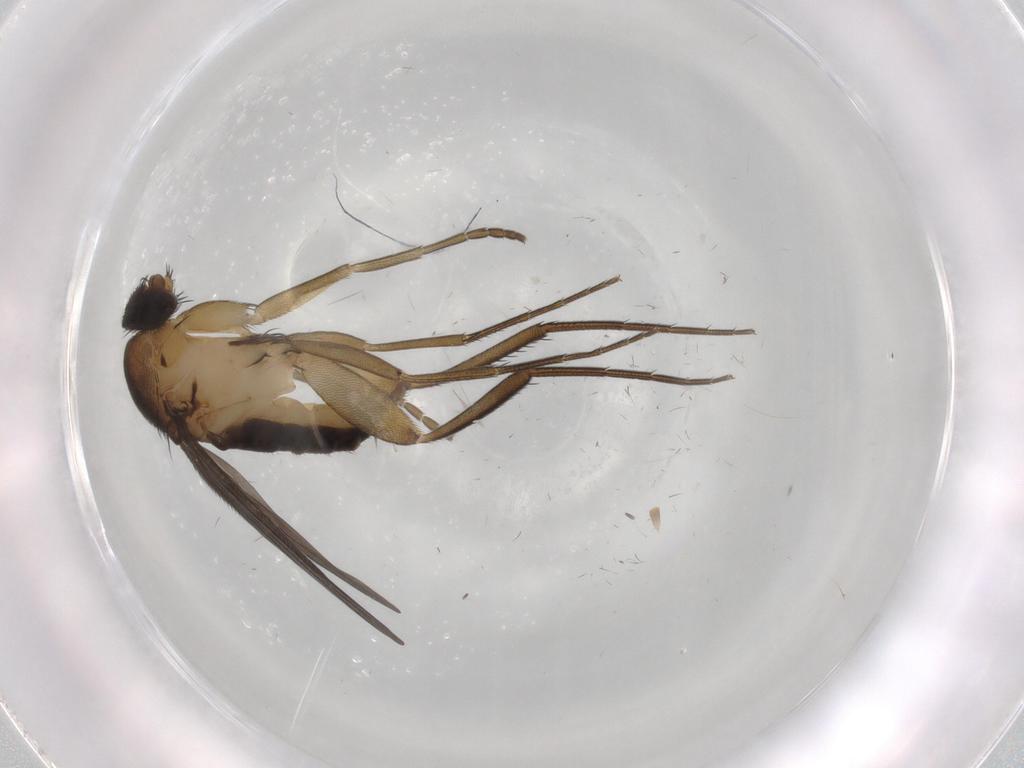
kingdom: Animalia
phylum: Arthropoda
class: Insecta
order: Diptera
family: Phoridae
